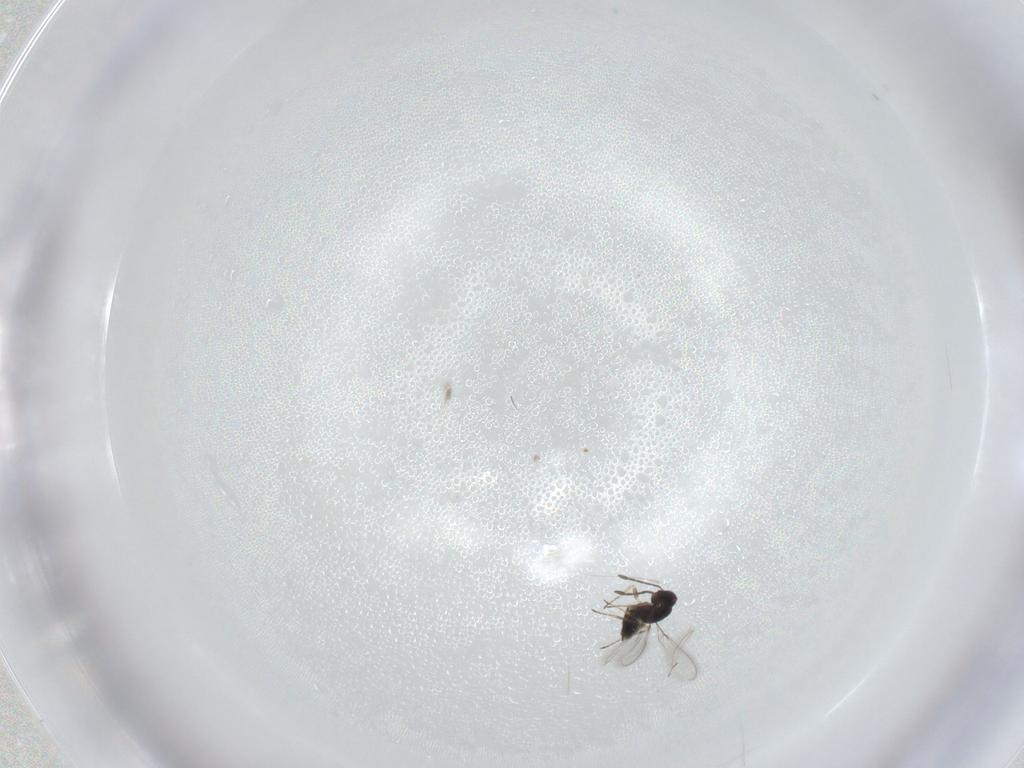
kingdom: Animalia
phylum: Arthropoda
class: Insecta
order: Hymenoptera
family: Mymaridae
